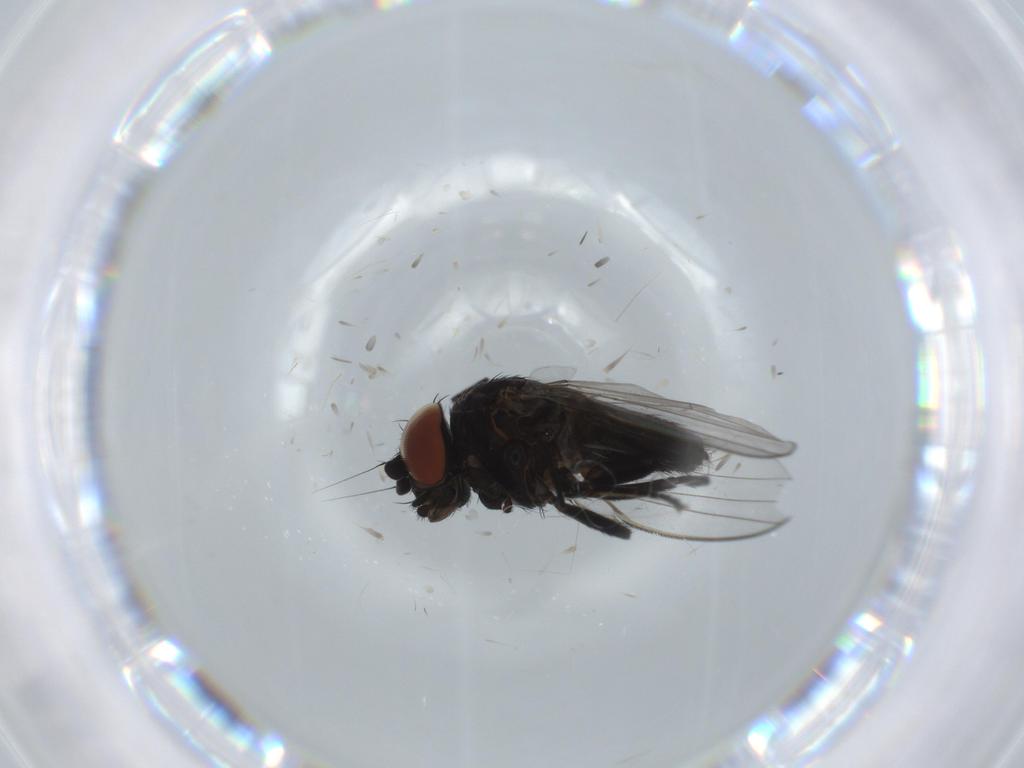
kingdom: Animalia
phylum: Arthropoda
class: Insecta
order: Diptera
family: Milichiidae
